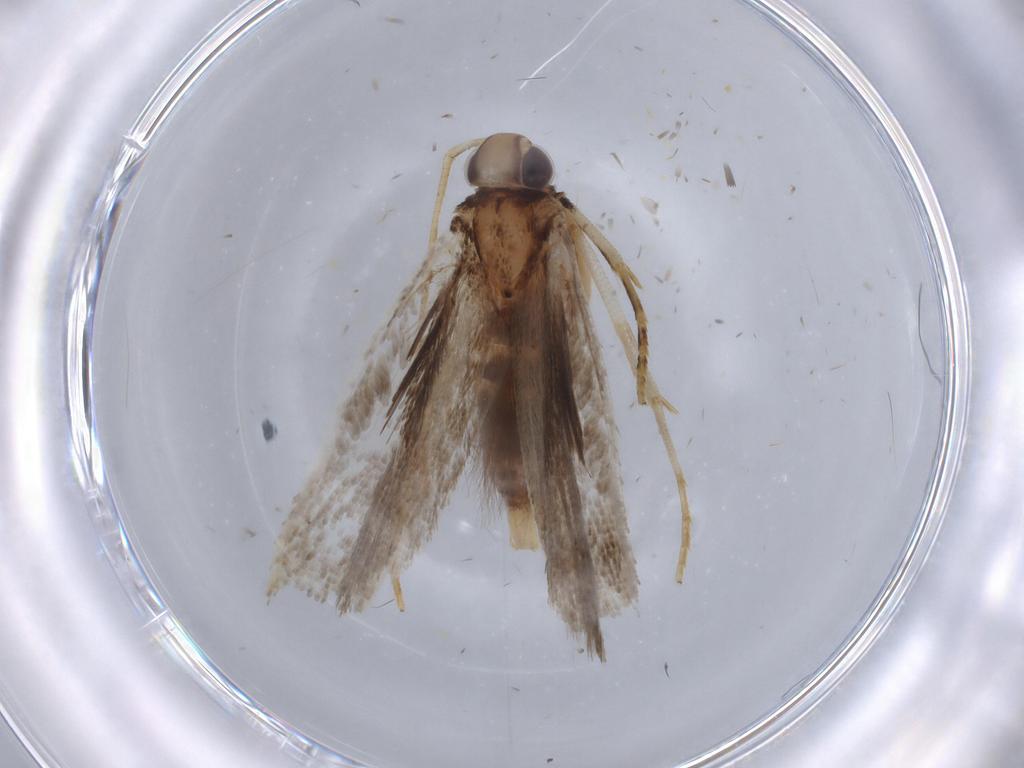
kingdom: Animalia
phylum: Arthropoda
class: Insecta
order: Lepidoptera
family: Gelechiidae
